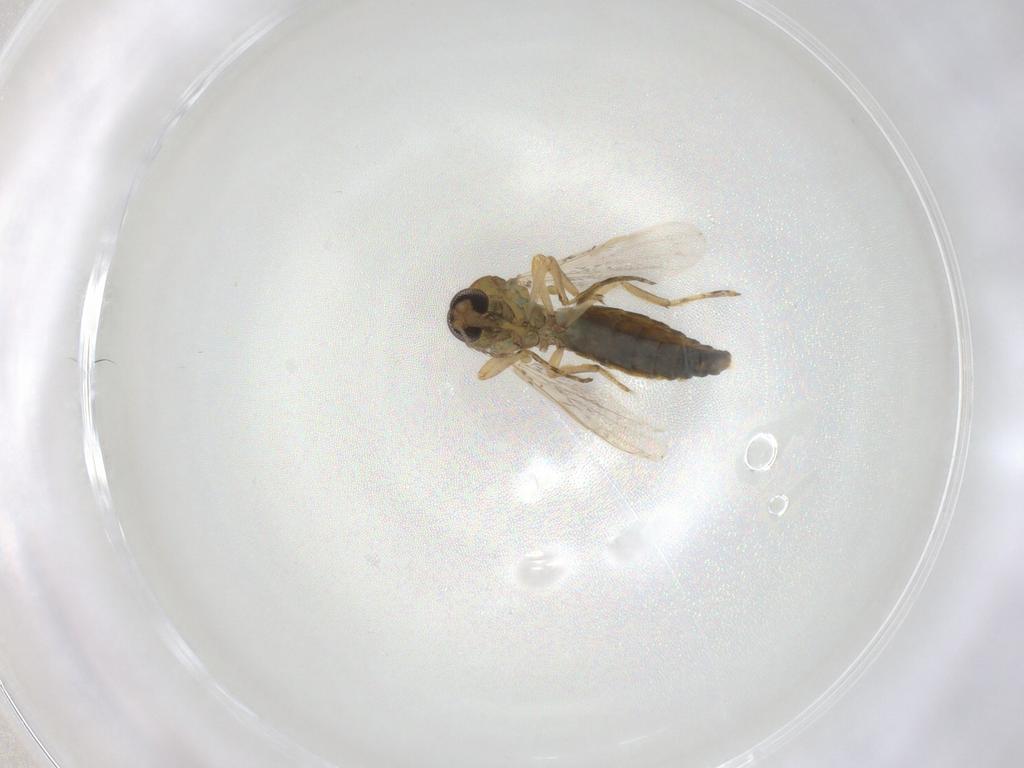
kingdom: Animalia
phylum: Arthropoda
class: Insecta
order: Diptera
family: Ceratopogonidae
